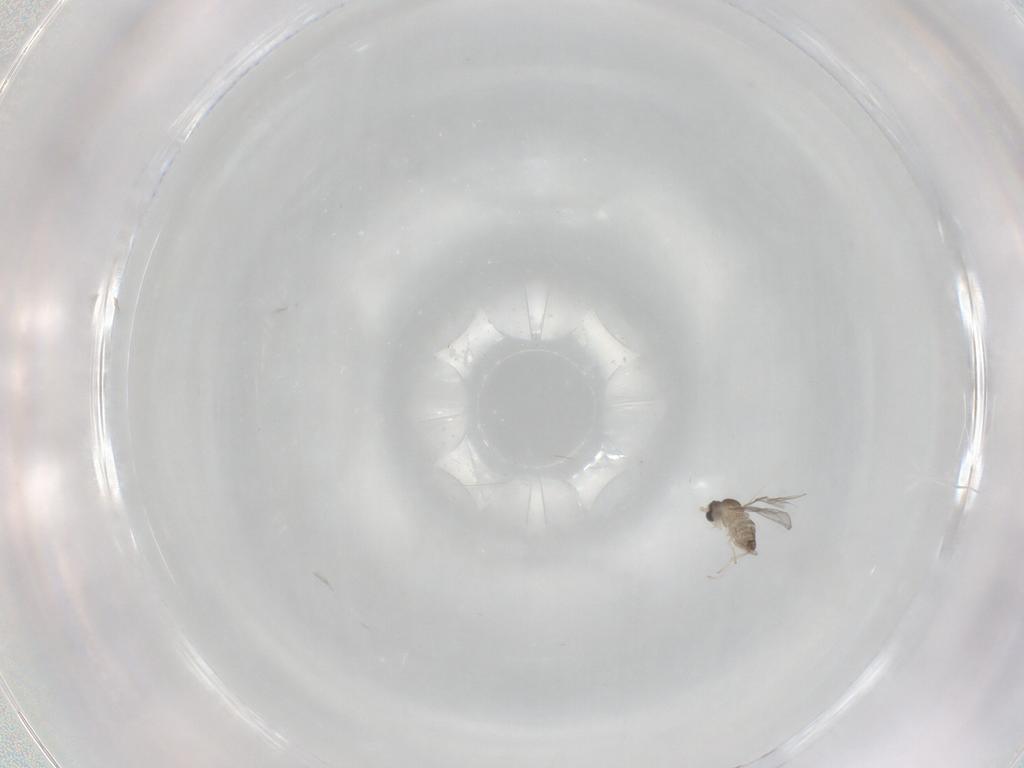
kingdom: Animalia
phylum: Arthropoda
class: Insecta
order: Diptera
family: Cecidomyiidae
